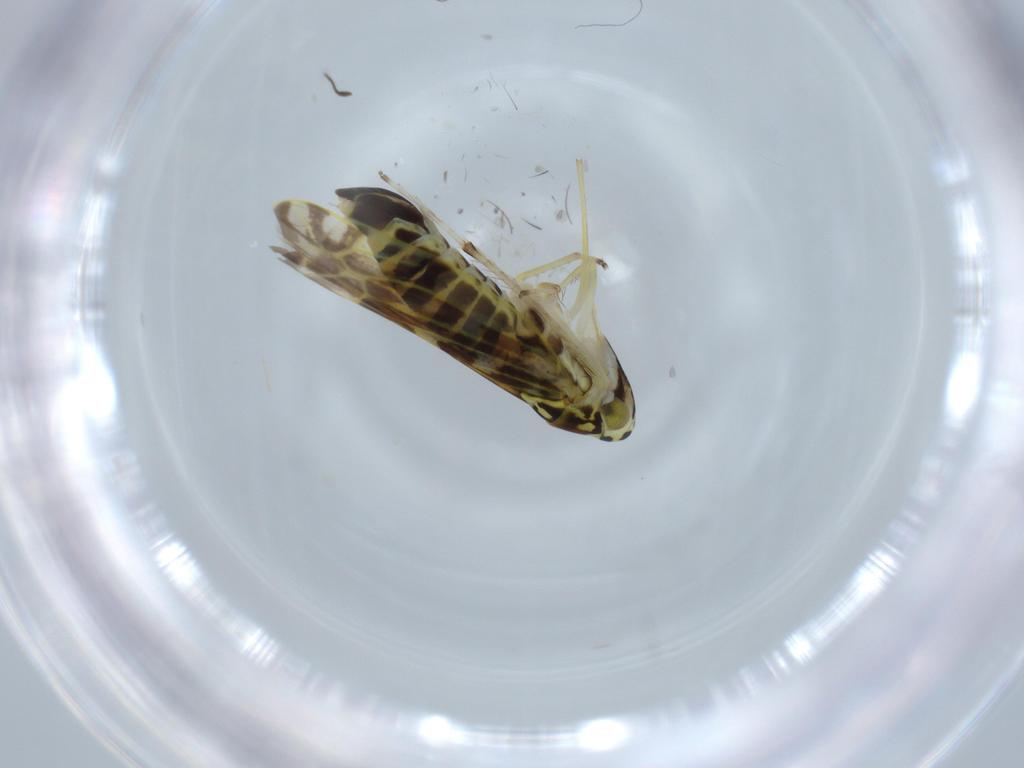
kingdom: Animalia
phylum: Arthropoda
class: Insecta
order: Hemiptera
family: Cicadellidae
